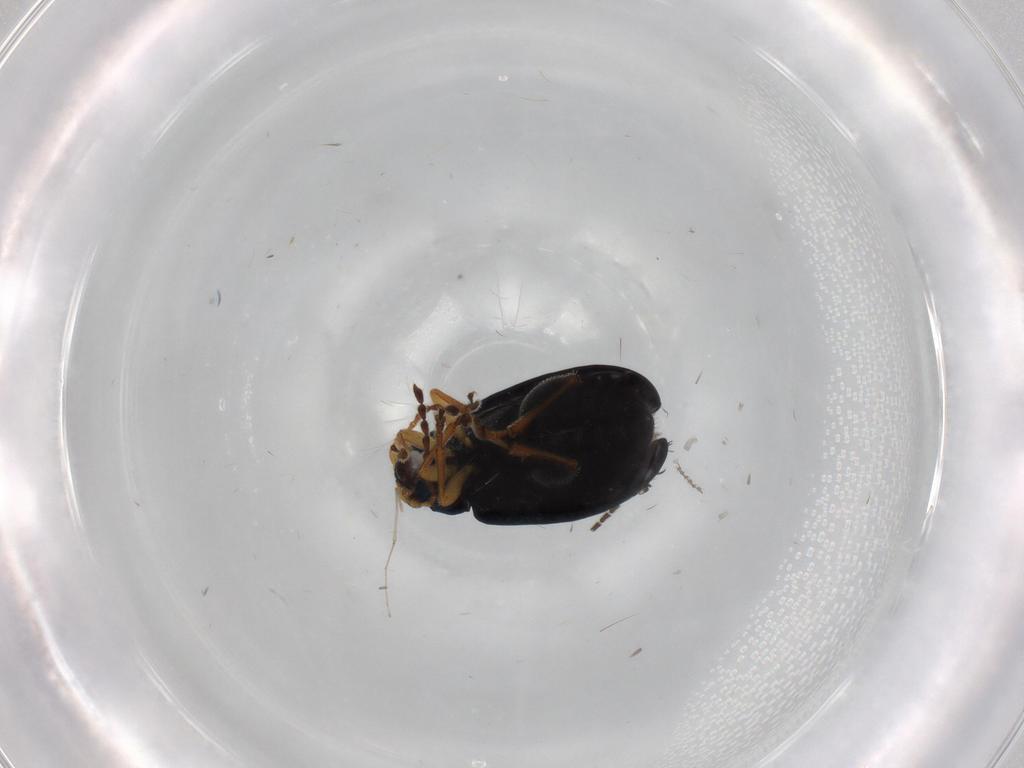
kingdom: Animalia
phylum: Arthropoda
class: Insecta
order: Coleoptera
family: Chrysomelidae
